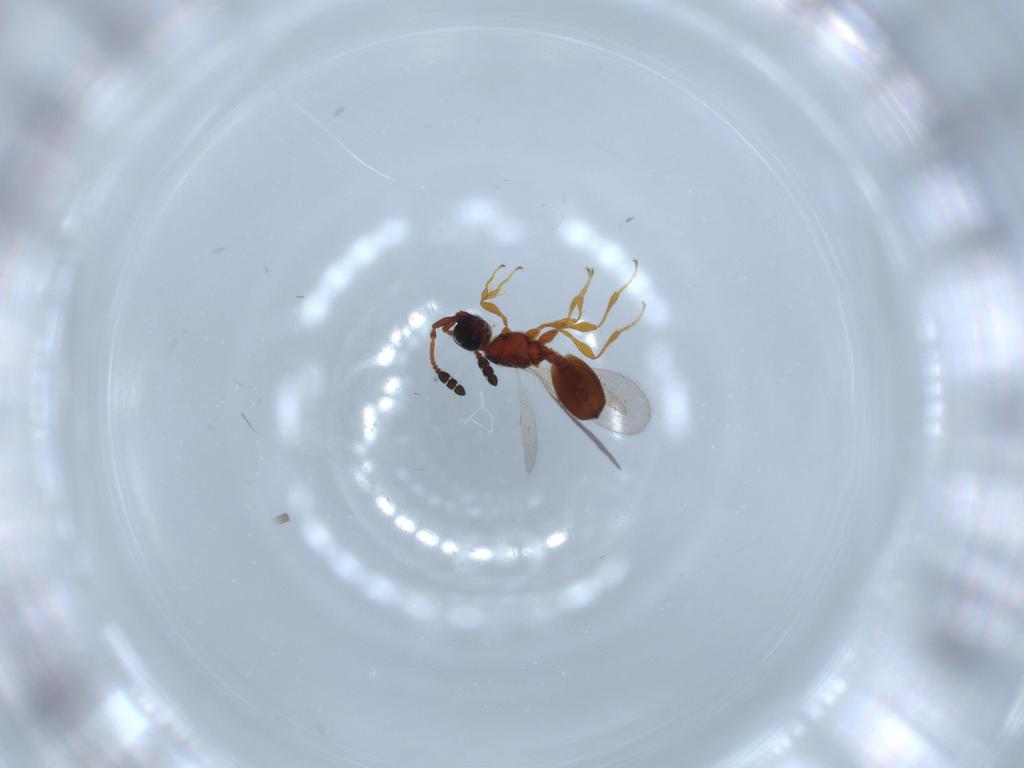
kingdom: Animalia
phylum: Arthropoda
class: Insecta
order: Hymenoptera
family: Diapriidae
